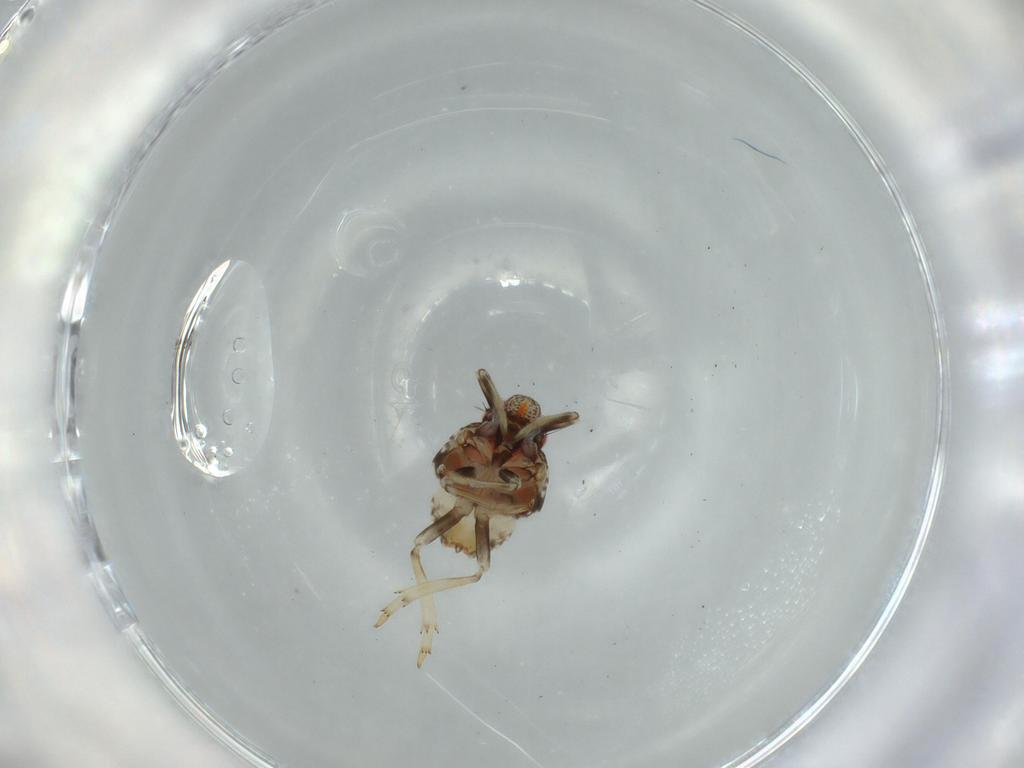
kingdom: Animalia
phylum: Arthropoda
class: Insecta
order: Hemiptera
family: Issidae
